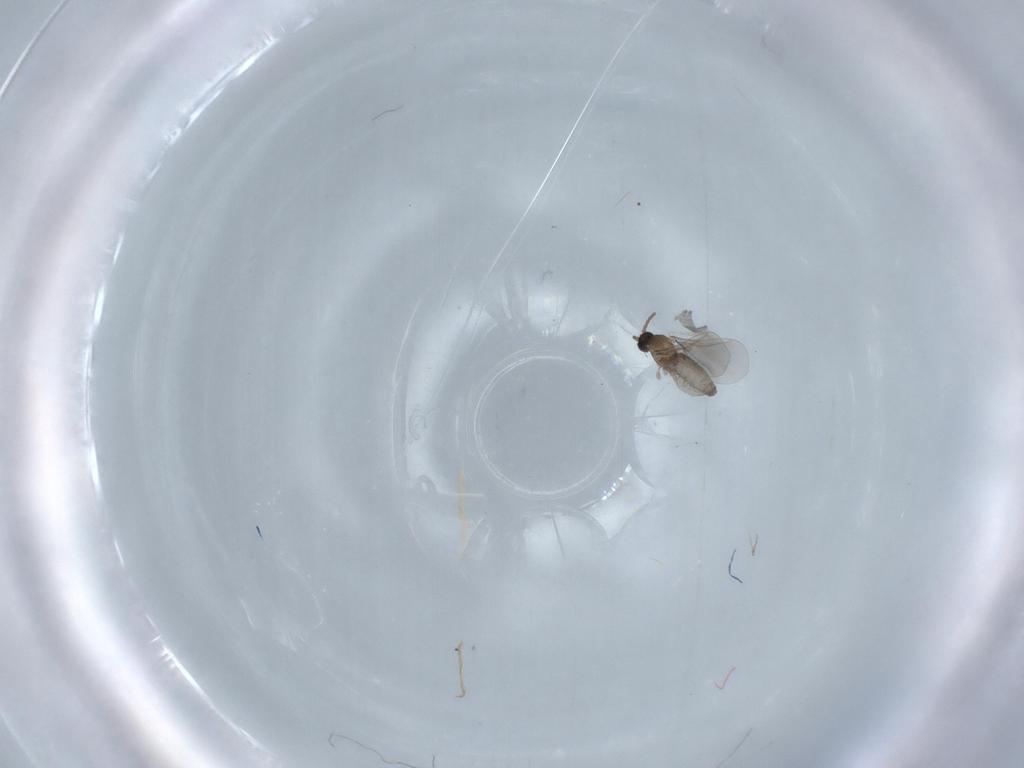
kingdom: Animalia
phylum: Arthropoda
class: Insecta
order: Diptera
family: Cecidomyiidae
